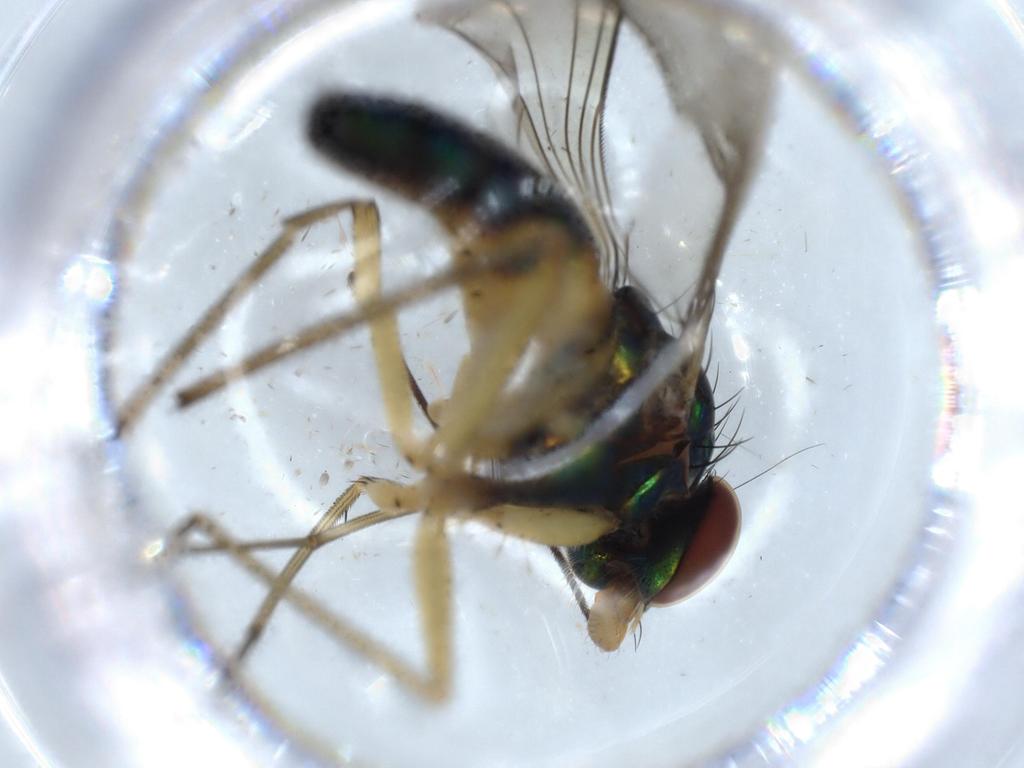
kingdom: Animalia
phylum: Arthropoda
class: Insecta
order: Diptera
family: Dolichopodidae
